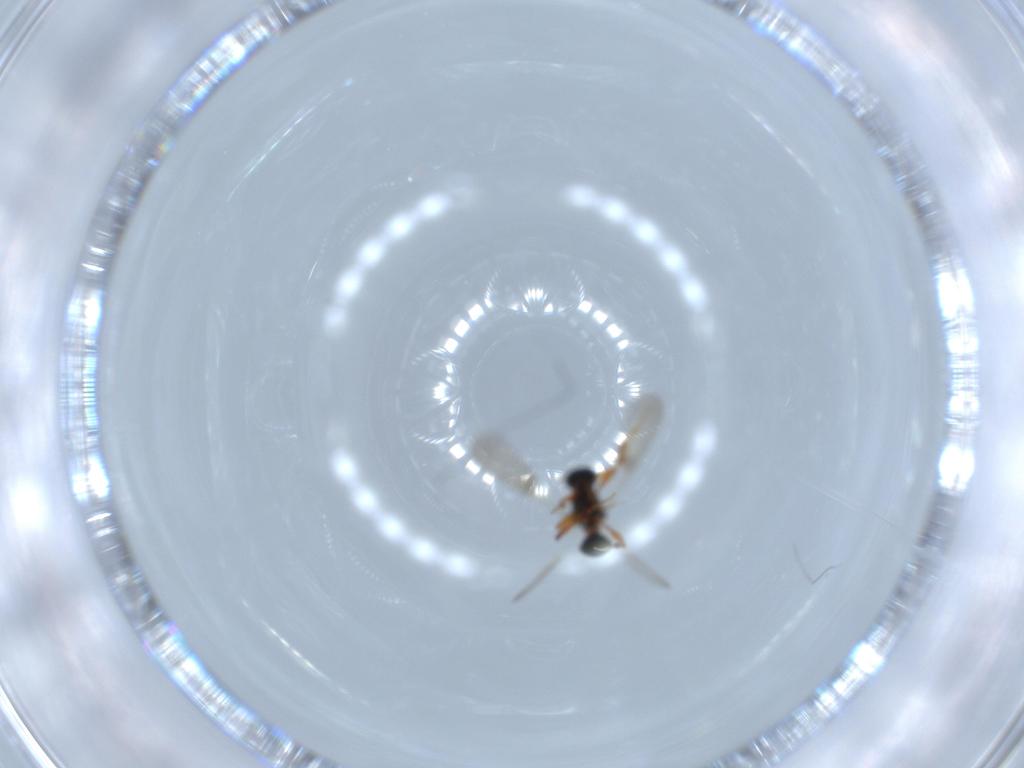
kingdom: Animalia
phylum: Arthropoda
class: Insecta
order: Hymenoptera
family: Platygastridae
